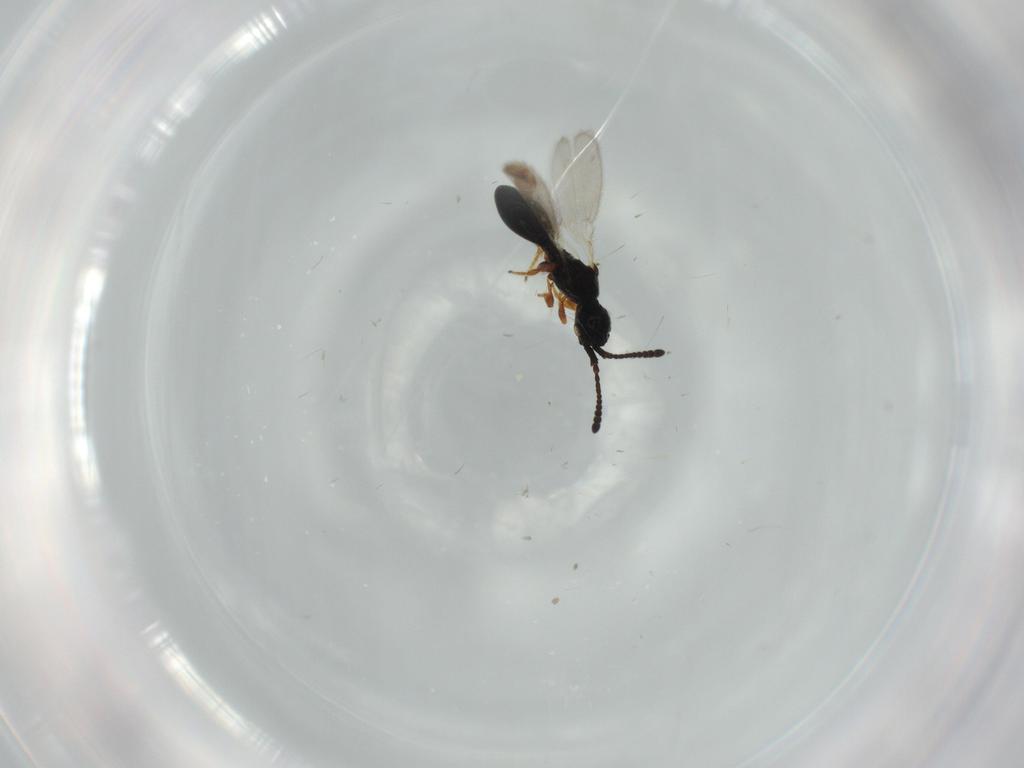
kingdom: Animalia
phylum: Arthropoda
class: Insecta
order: Hymenoptera
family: Diapriidae
